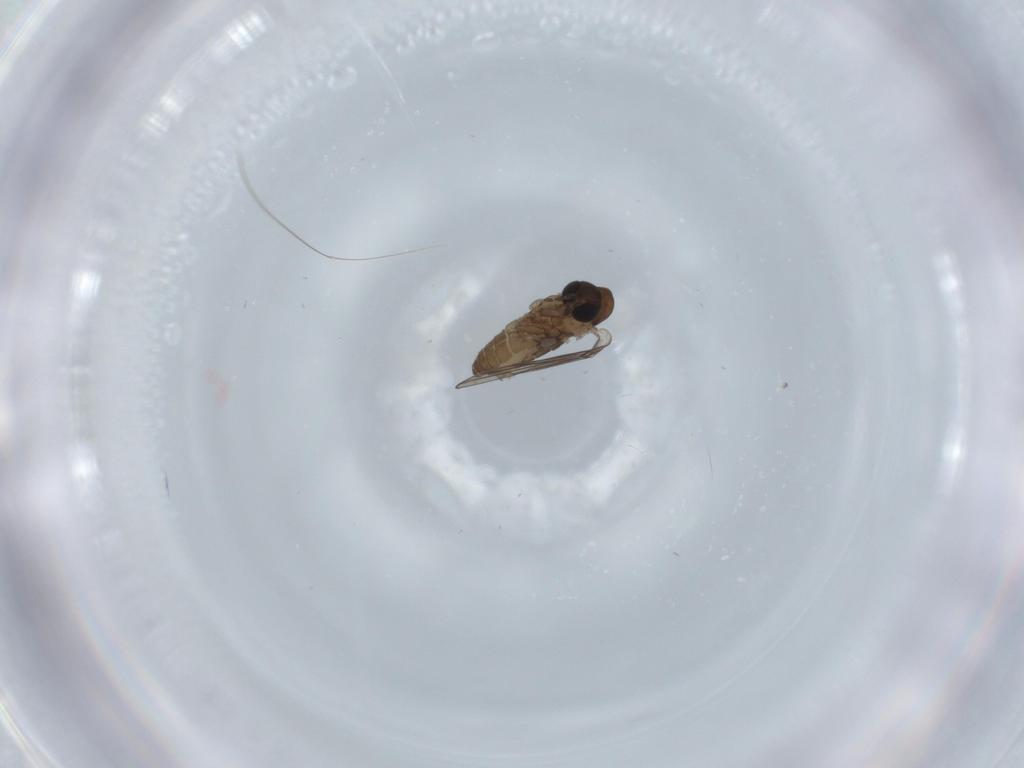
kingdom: Animalia
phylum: Arthropoda
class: Insecta
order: Diptera
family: Psychodidae
